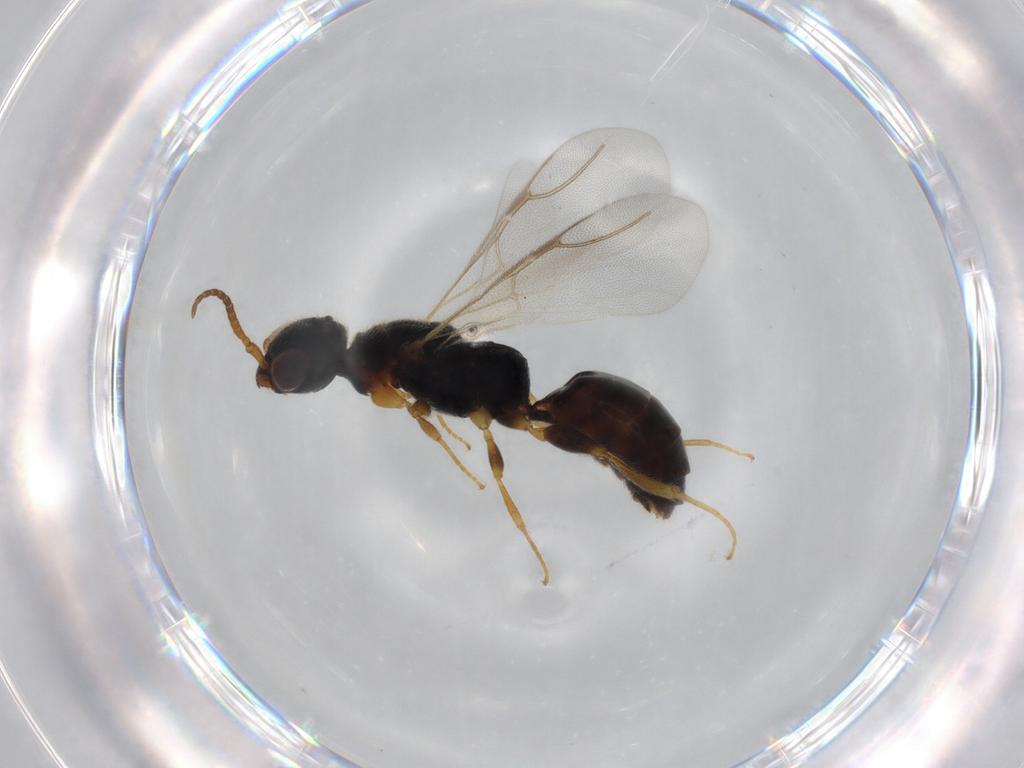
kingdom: Animalia
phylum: Arthropoda
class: Insecta
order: Hymenoptera
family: Bethylidae
